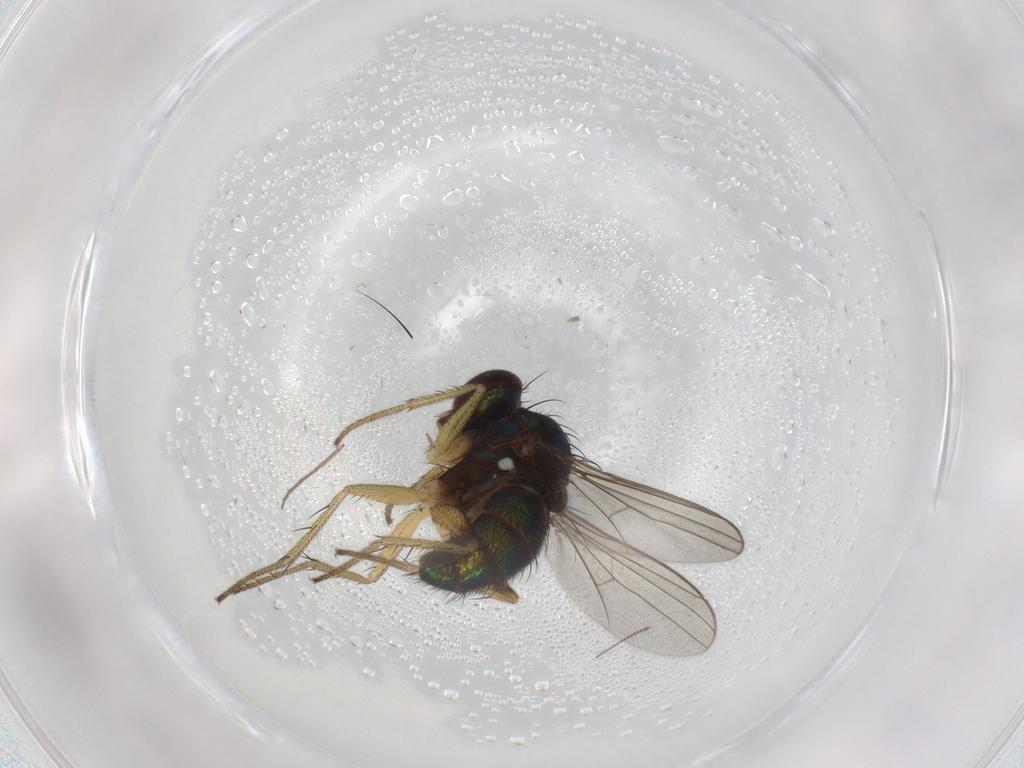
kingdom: Animalia
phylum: Arthropoda
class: Insecta
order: Diptera
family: Dolichopodidae
